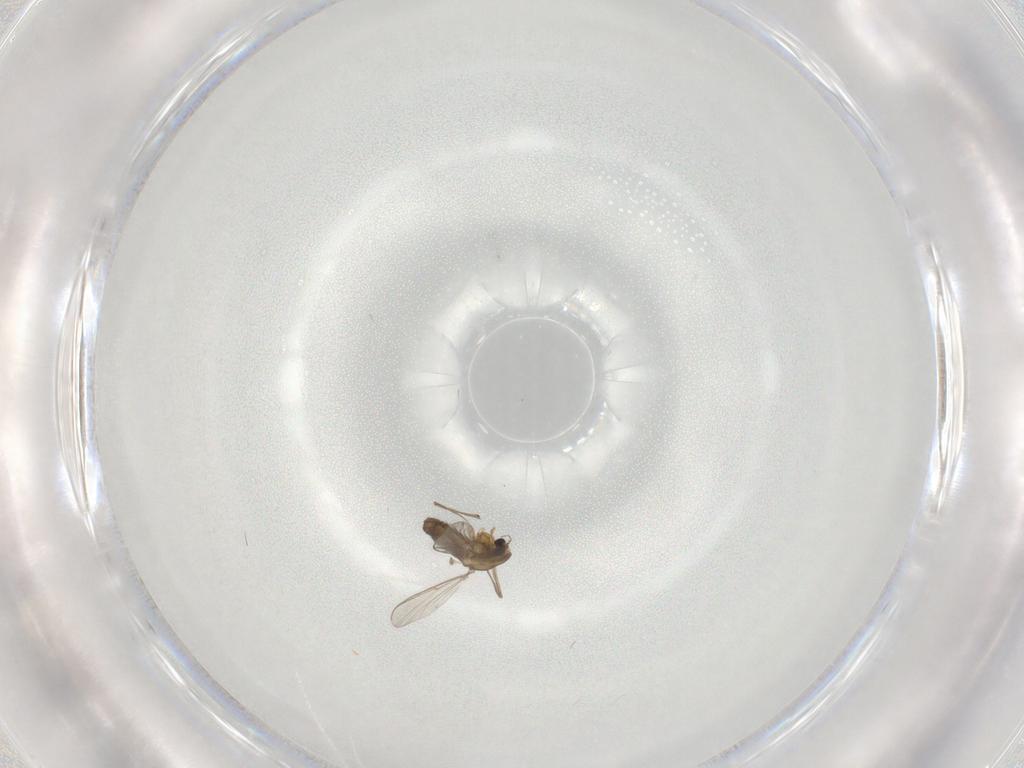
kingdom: Animalia
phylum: Arthropoda
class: Insecta
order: Diptera
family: Chironomidae
